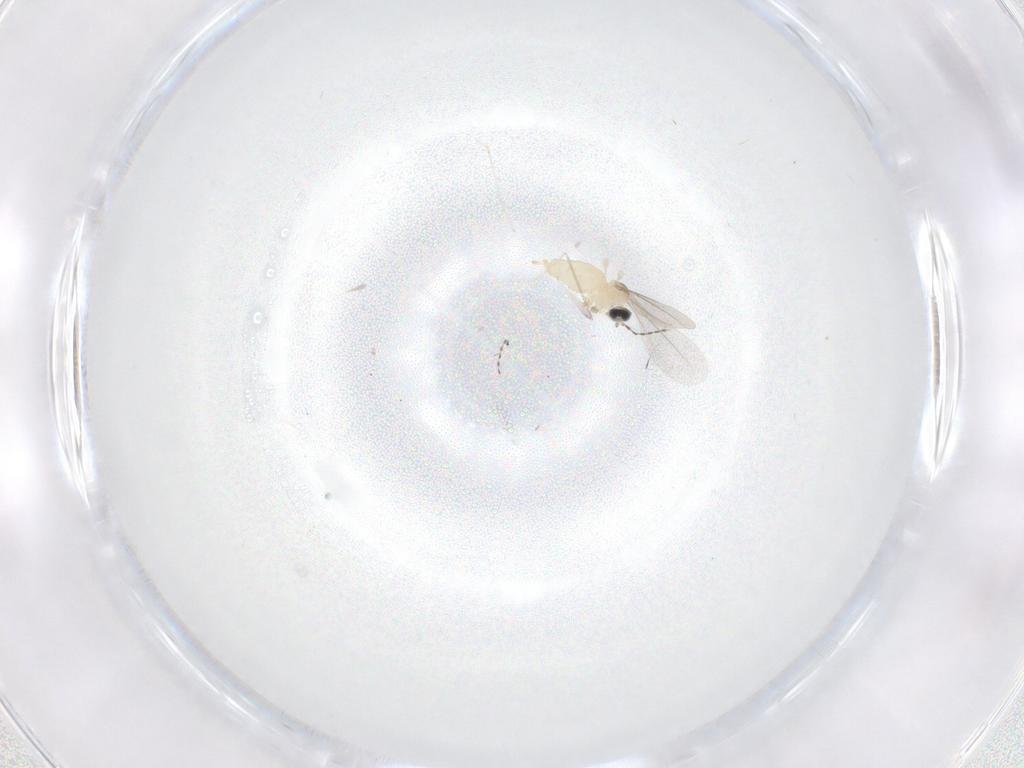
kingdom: Animalia
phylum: Arthropoda
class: Insecta
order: Diptera
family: Cecidomyiidae
